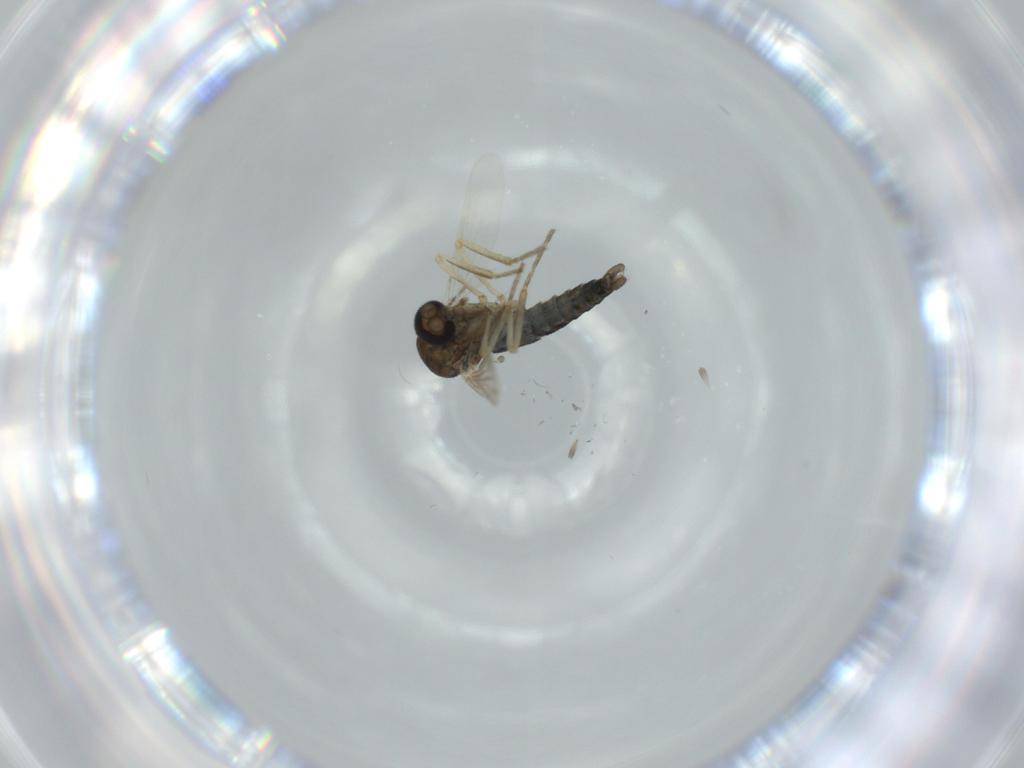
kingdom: Animalia
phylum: Arthropoda
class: Insecta
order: Diptera
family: Ceratopogonidae
